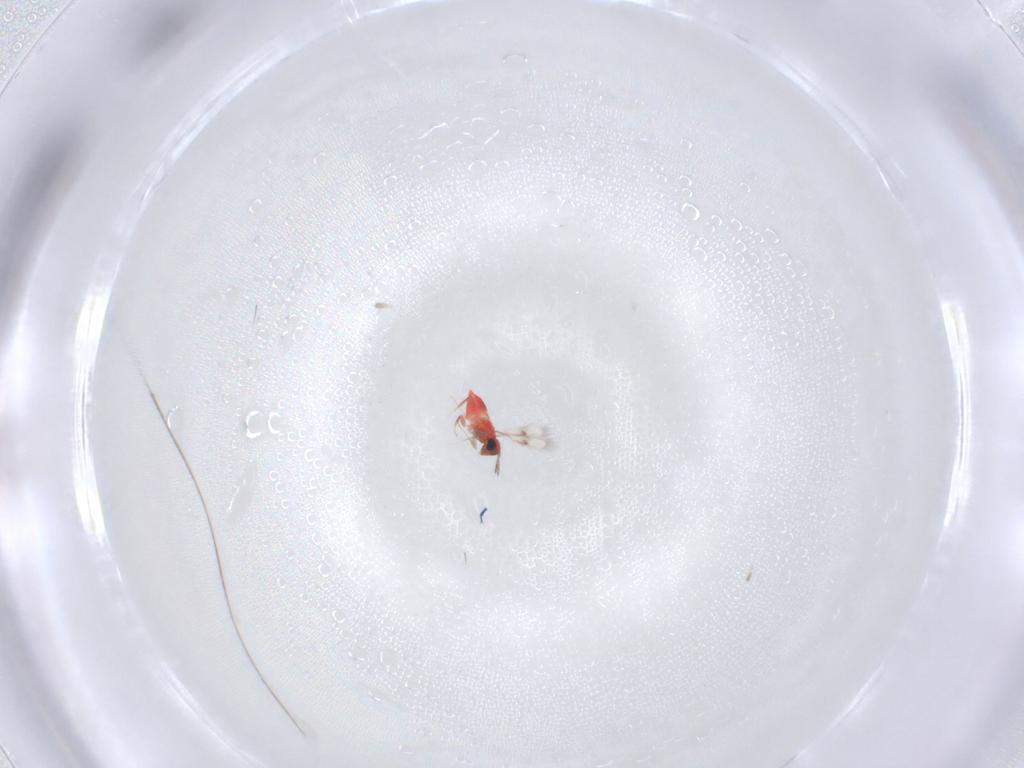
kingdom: Animalia
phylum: Arthropoda
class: Insecta
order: Hymenoptera
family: Trichogrammatidae
